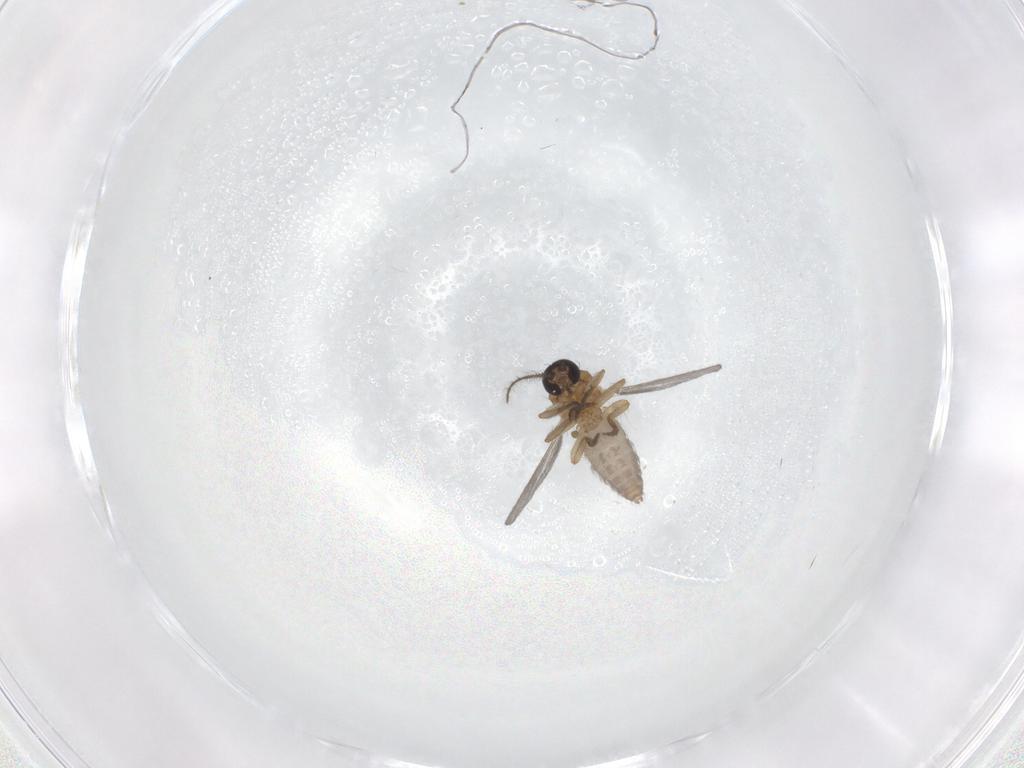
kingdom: Animalia
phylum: Arthropoda
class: Insecta
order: Diptera
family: Ceratopogonidae
